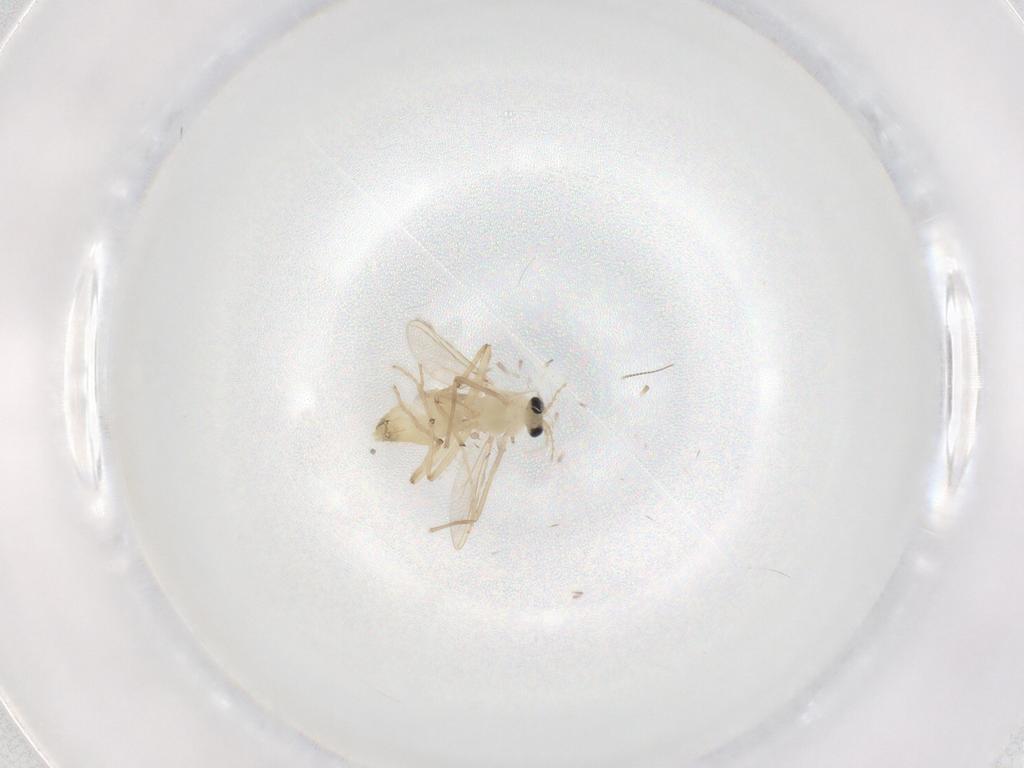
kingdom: Animalia
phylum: Arthropoda
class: Insecta
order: Diptera
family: Chironomidae
